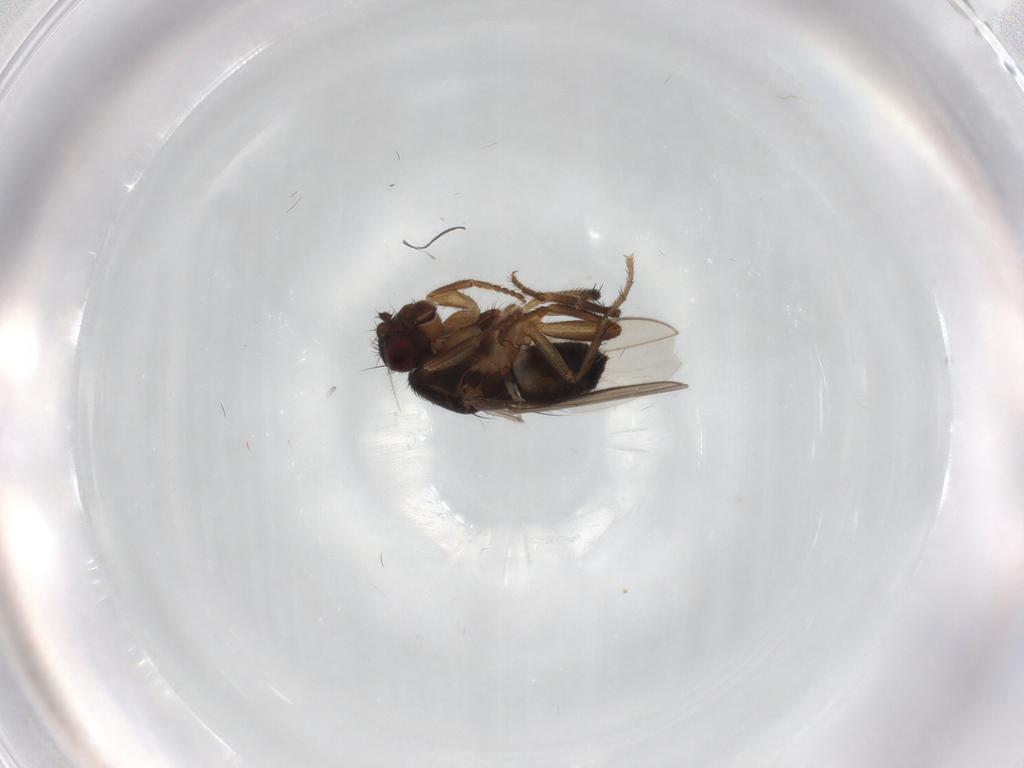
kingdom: Animalia
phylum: Arthropoda
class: Insecta
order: Diptera
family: Sphaeroceridae
